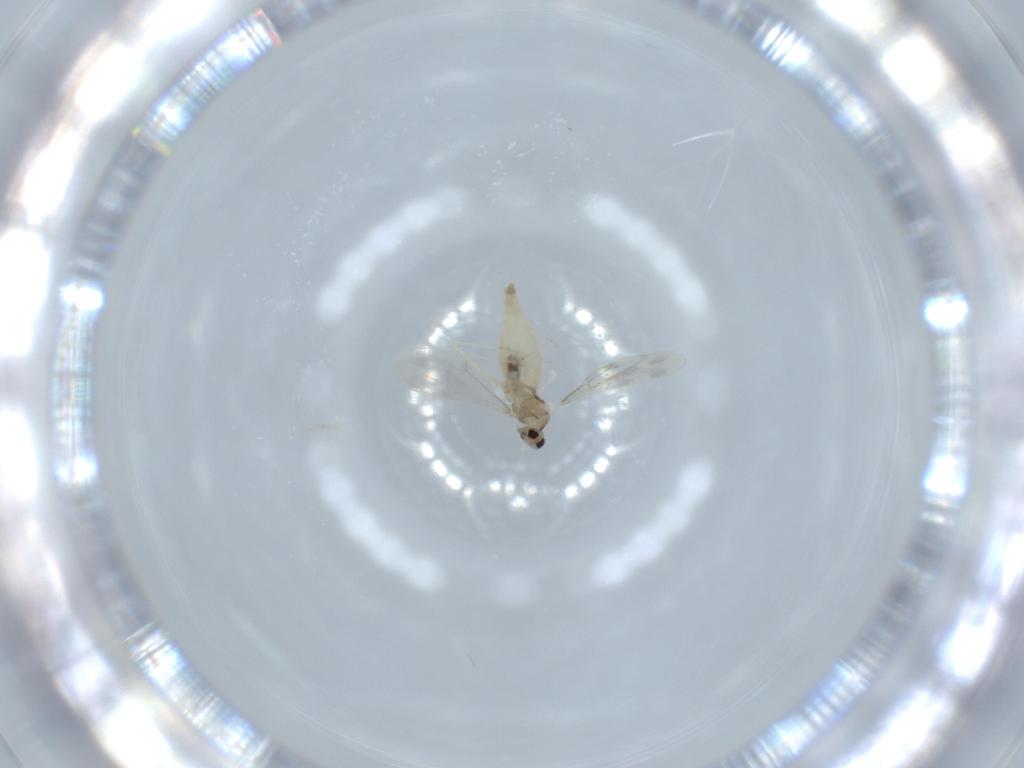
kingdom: Animalia
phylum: Arthropoda
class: Insecta
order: Diptera
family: Cecidomyiidae
